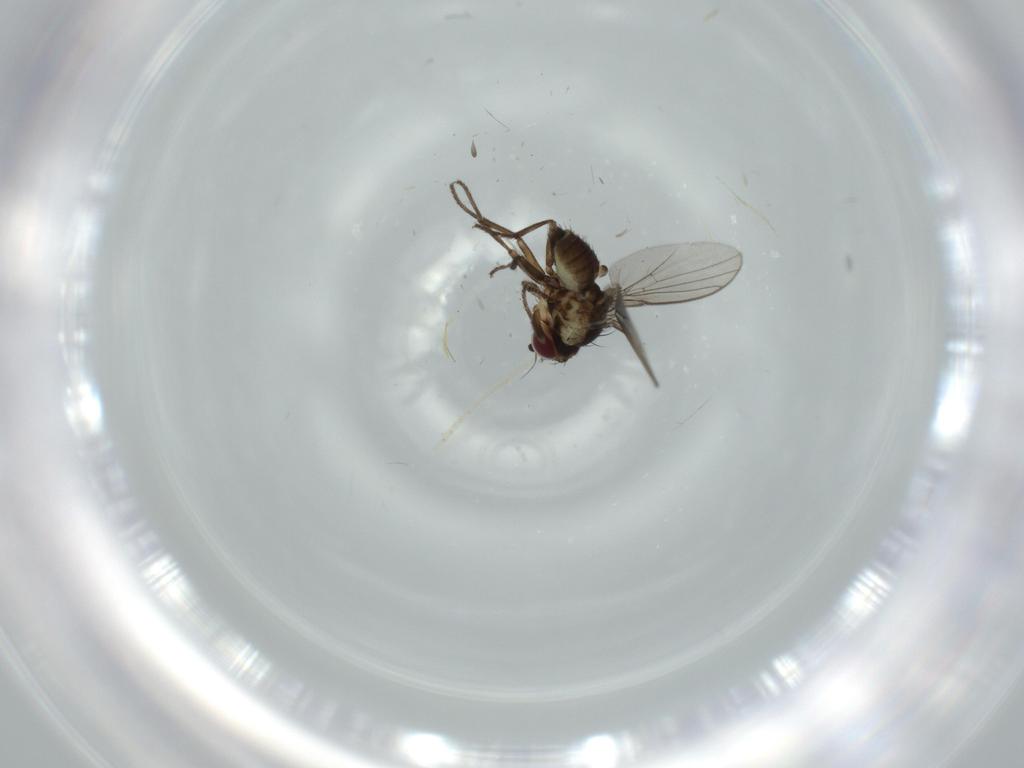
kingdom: Animalia
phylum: Arthropoda
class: Insecta
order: Diptera
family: Agromyzidae
